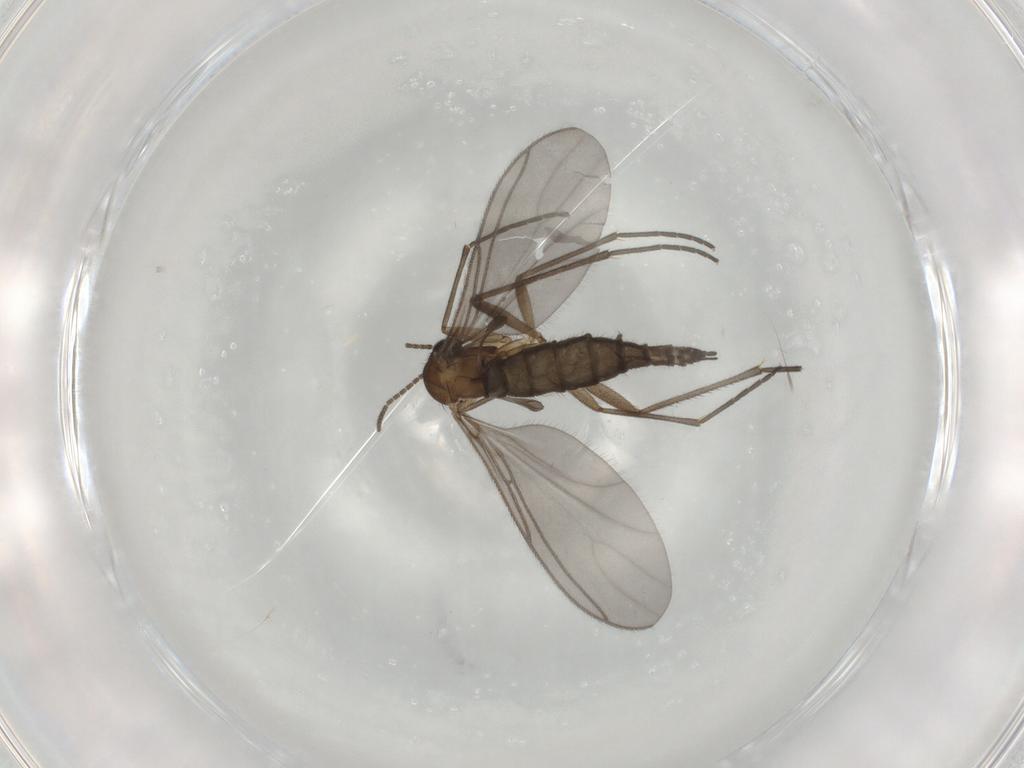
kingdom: Animalia
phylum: Arthropoda
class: Insecta
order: Diptera
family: Sciaridae
